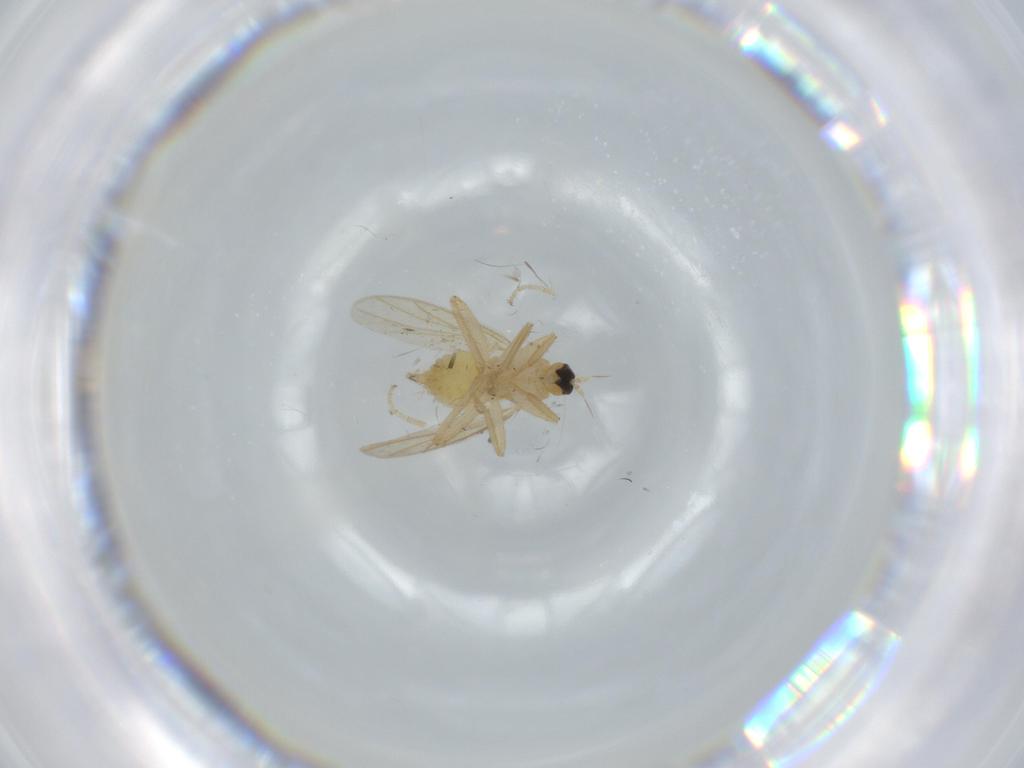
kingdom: Animalia
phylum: Arthropoda
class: Insecta
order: Diptera
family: Hybotidae
